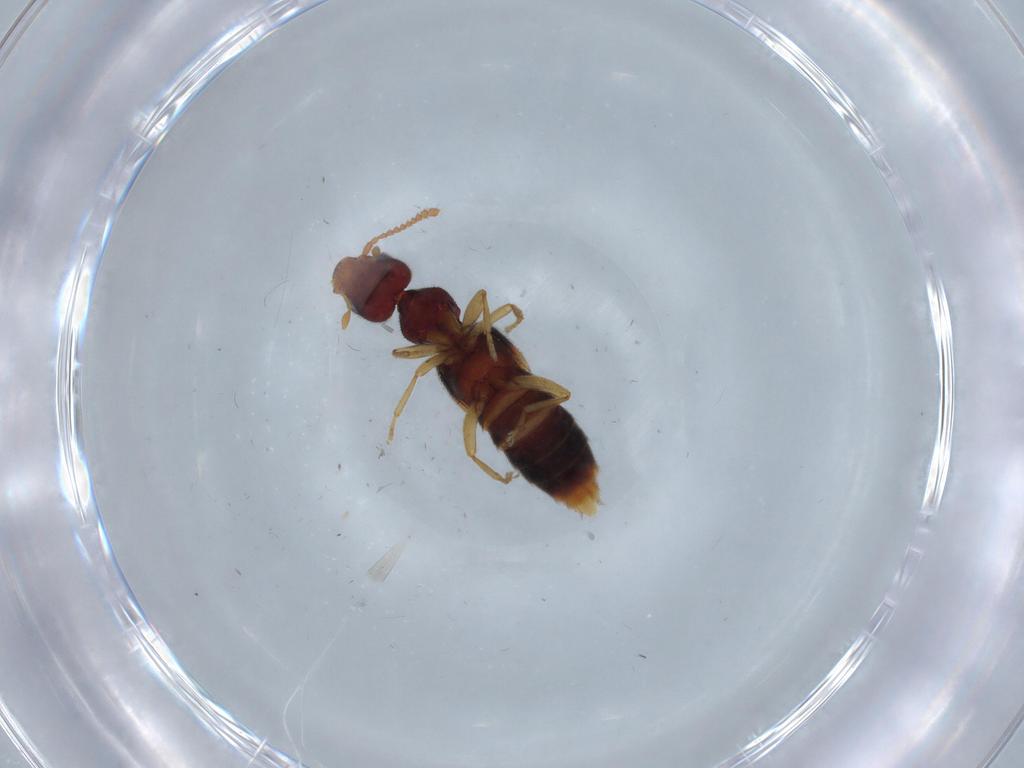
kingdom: Animalia
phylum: Arthropoda
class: Insecta
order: Coleoptera
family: Staphylinidae
